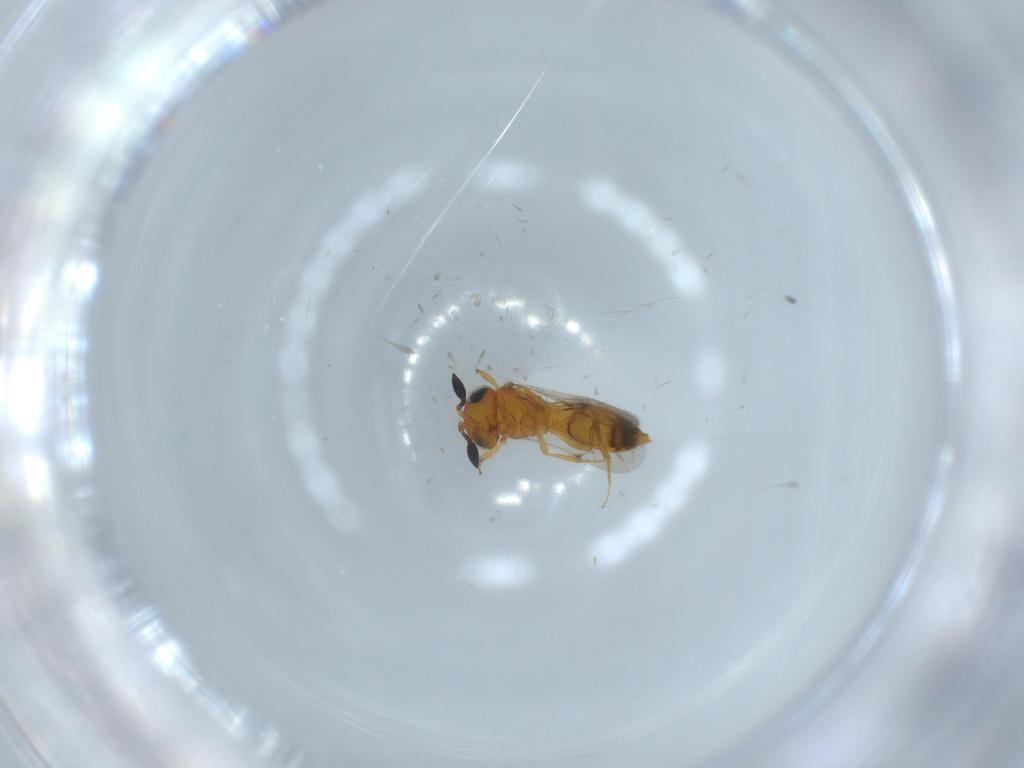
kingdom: Animalia
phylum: Arthropoda
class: Insecta
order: Hymenoptera
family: Scelionidae
